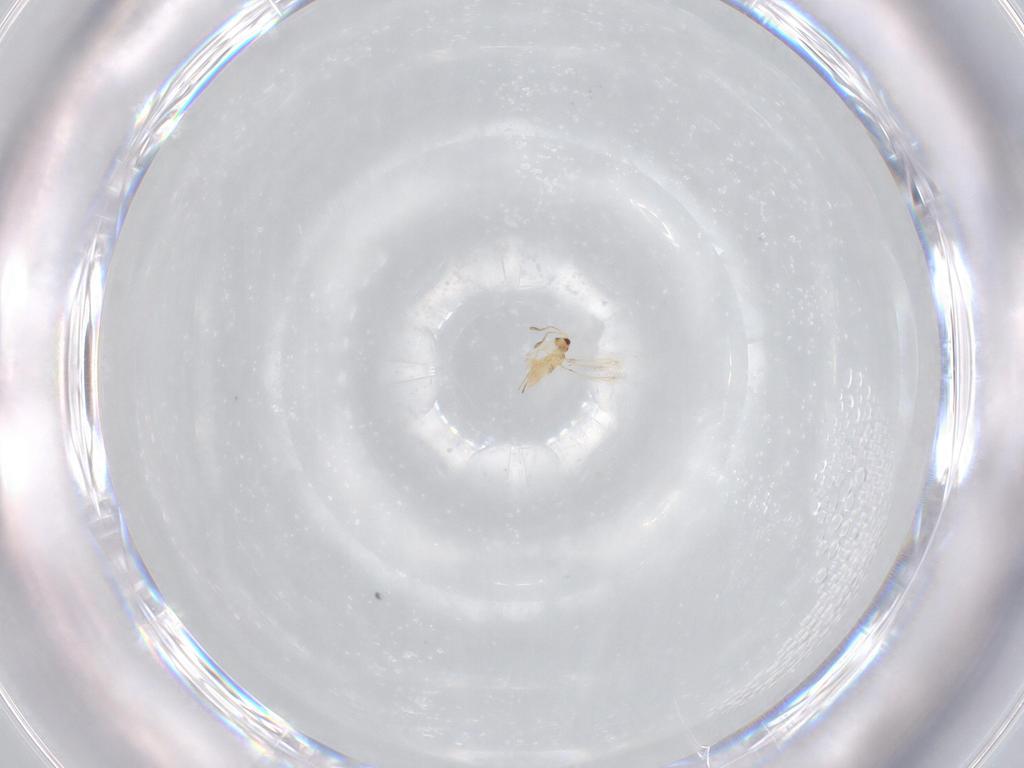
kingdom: Animalia
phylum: Arthropoda
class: Insecta
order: Hymenoptera
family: Mymaridae
